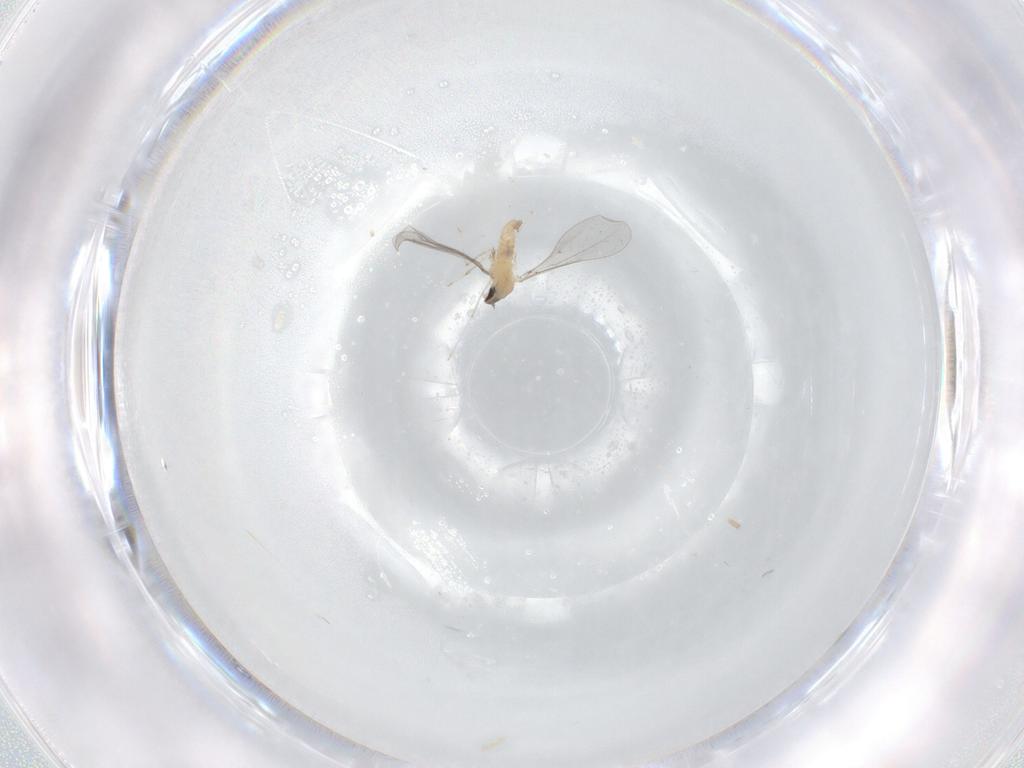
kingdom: Animalia
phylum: Arthropoda
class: Insecta
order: Diptera
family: Cecidomyiidae
